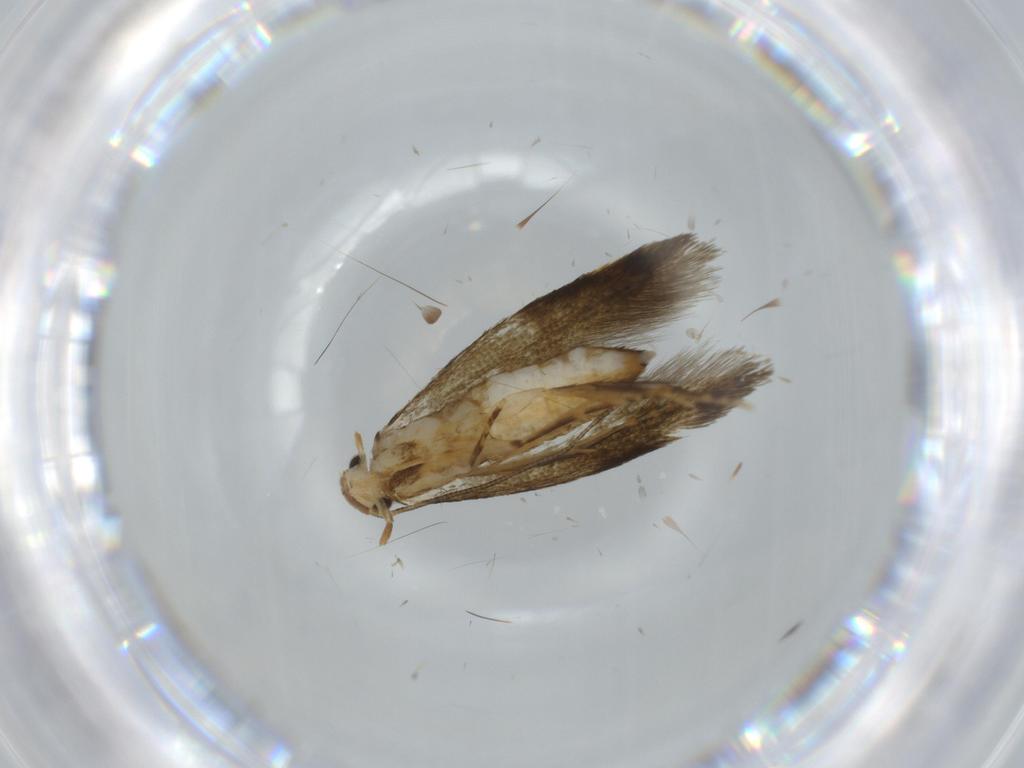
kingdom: Animalia
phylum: Arthropoda
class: Insecta
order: Lepidoptera
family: Tineidae
